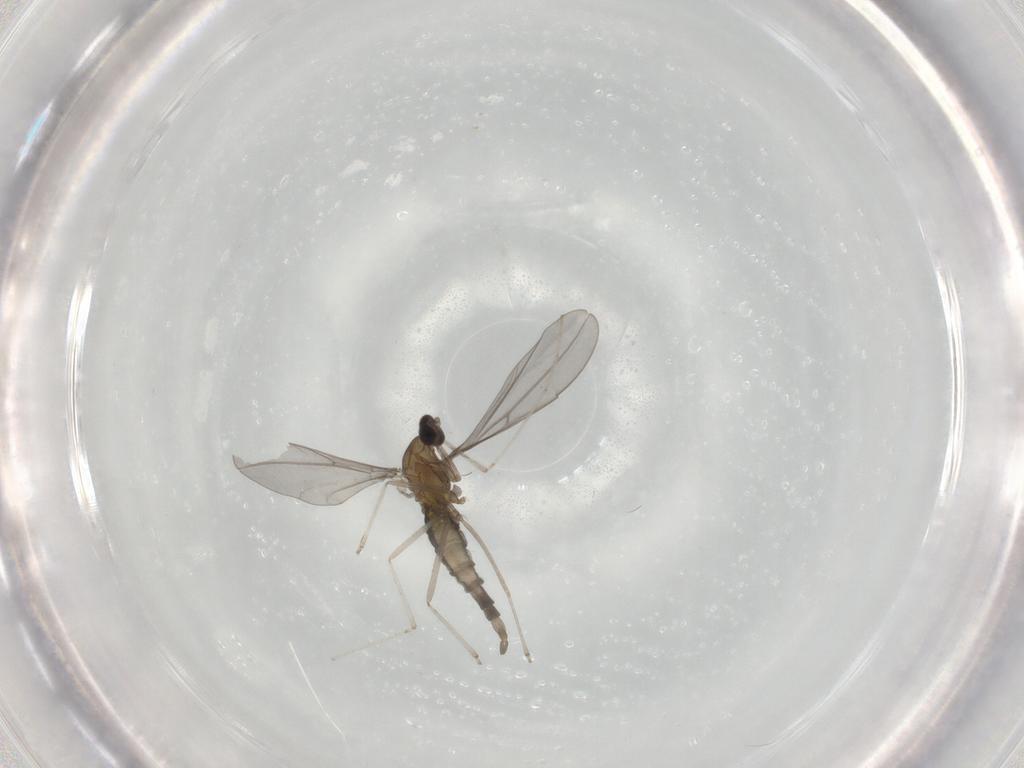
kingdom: Animalia
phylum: Arthropoda
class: Insecta
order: Diptera
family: Cecidomyiidae
